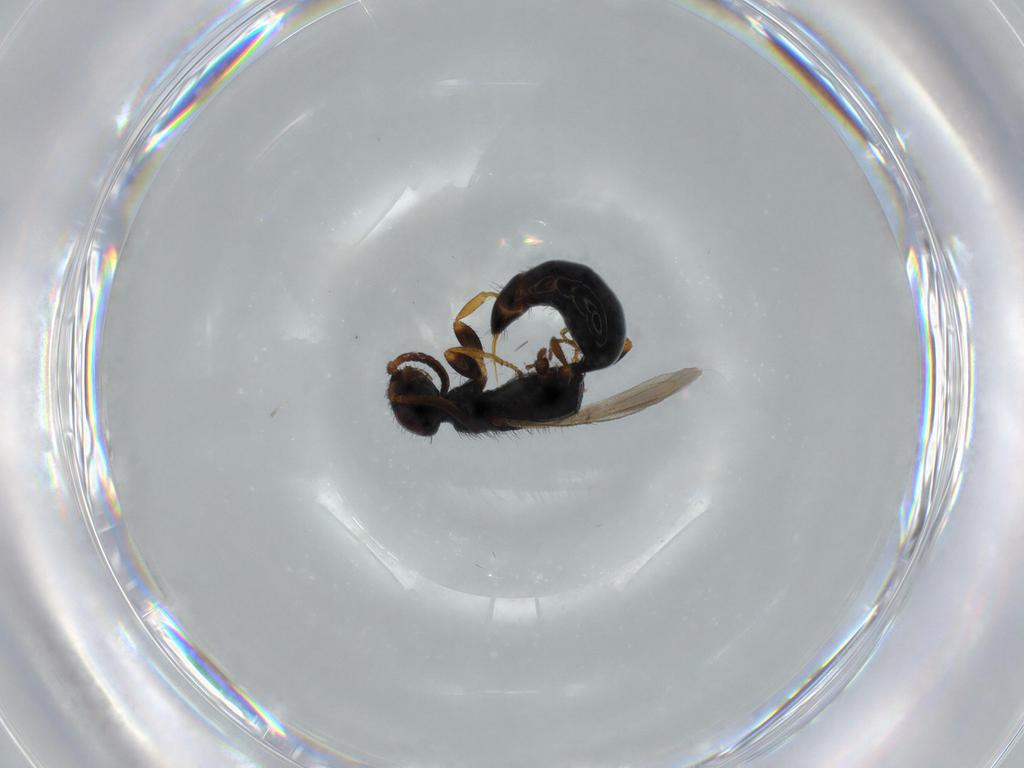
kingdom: Animalia
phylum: Arthropoda
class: Insecta
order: Hymenoptera
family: Bethylidae
